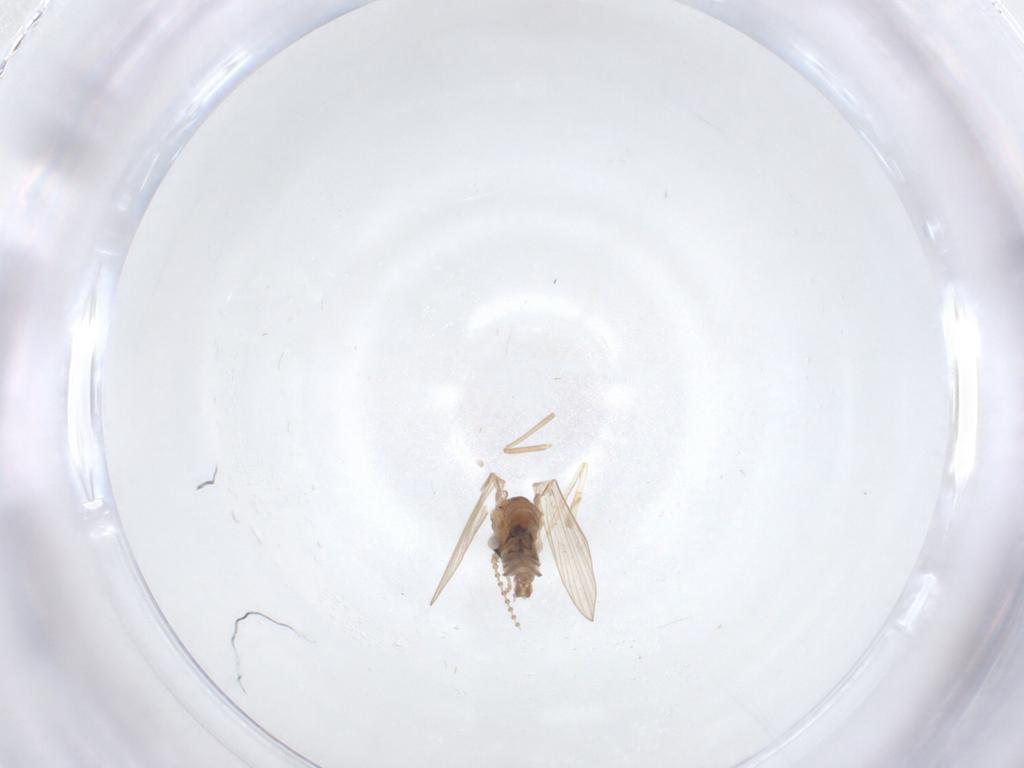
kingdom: Animalia
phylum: Arthropoda
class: Insecta
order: Diptera
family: Psychodidae
